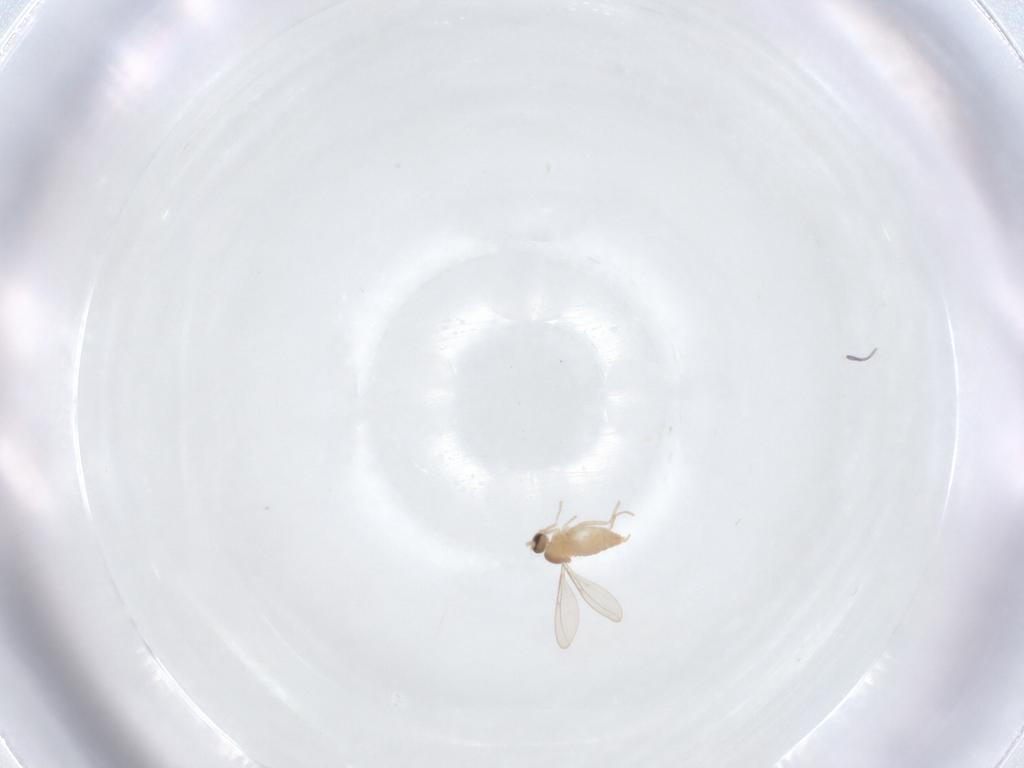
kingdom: Animalia
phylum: Arthropoda
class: Insecta
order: Diptera
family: Cecidomyiidae
